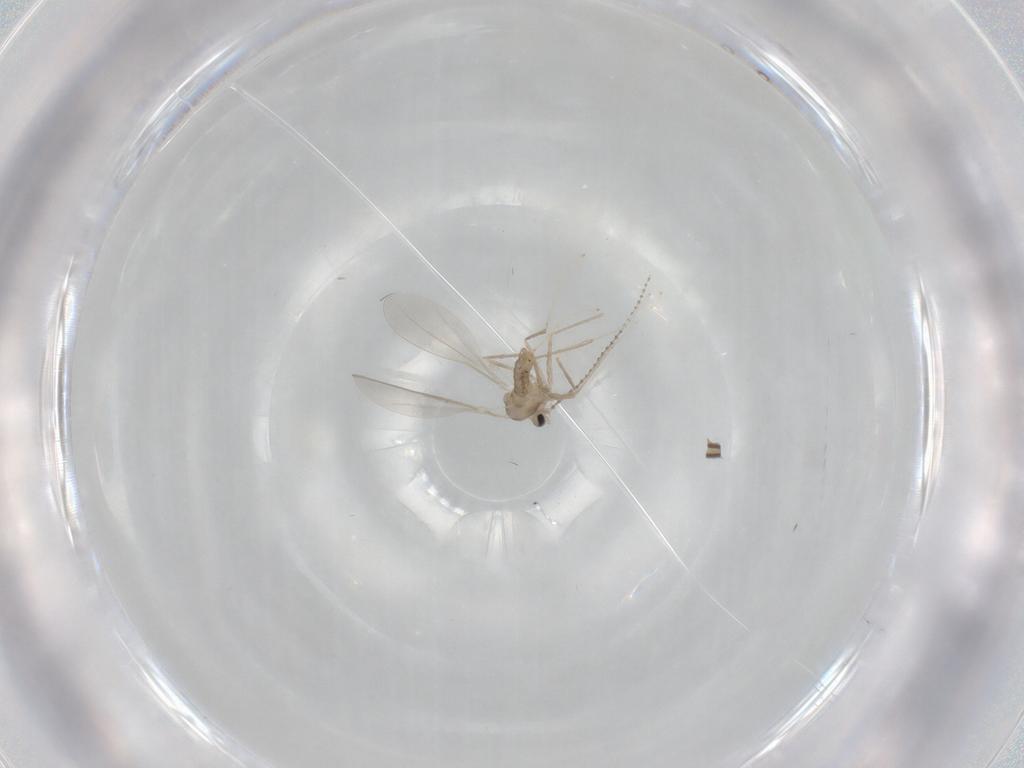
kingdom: Animalia
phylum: Arthropoda
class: Insecta
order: Diptera
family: Cecidomyiidae
